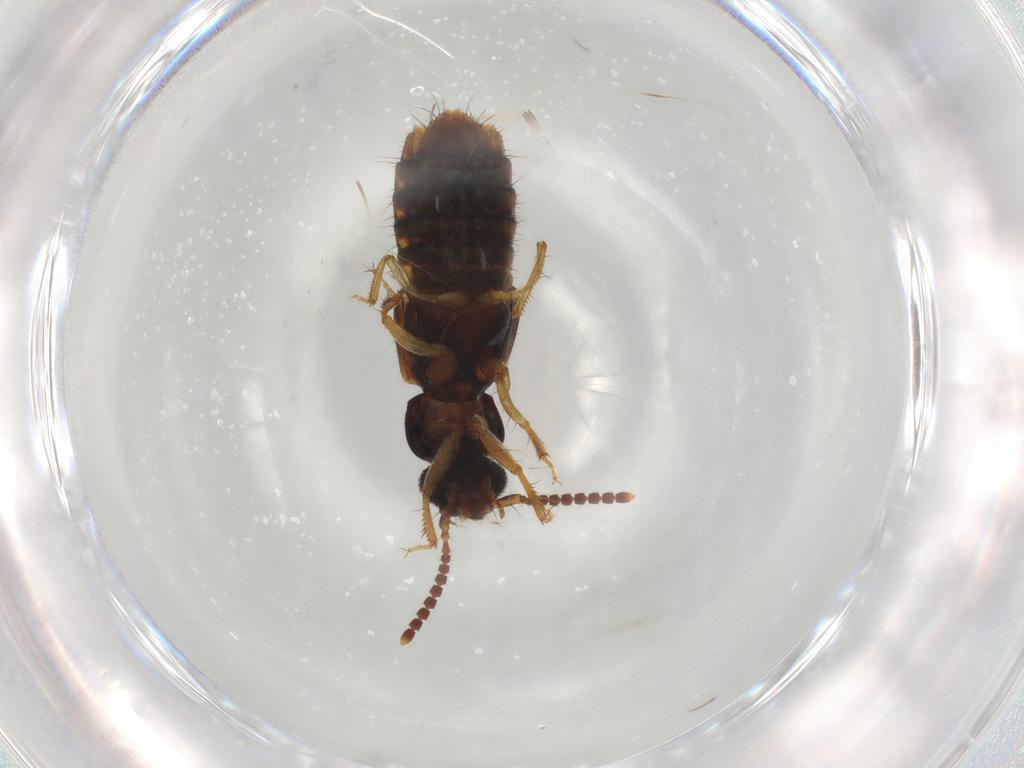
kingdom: Animalia
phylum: Arthropoda
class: Insecta
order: Coleoptera
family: Staphylinidae
